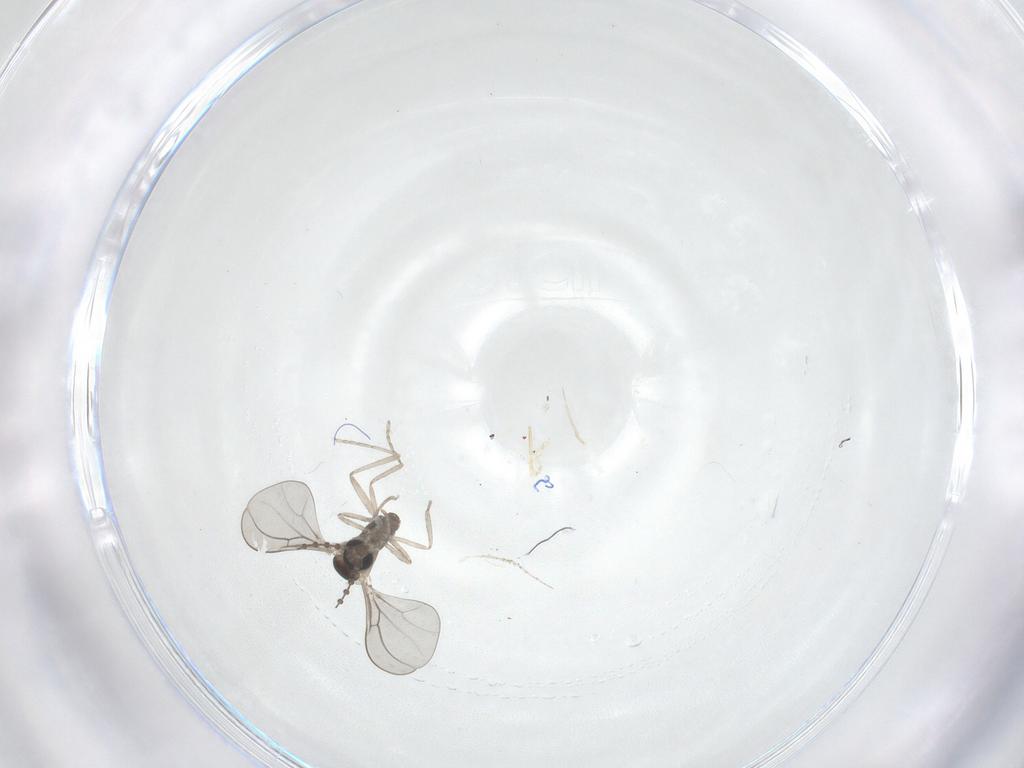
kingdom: Animalia
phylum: Arthropoda
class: Insecta
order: Diptera
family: Cecidomyiidae
